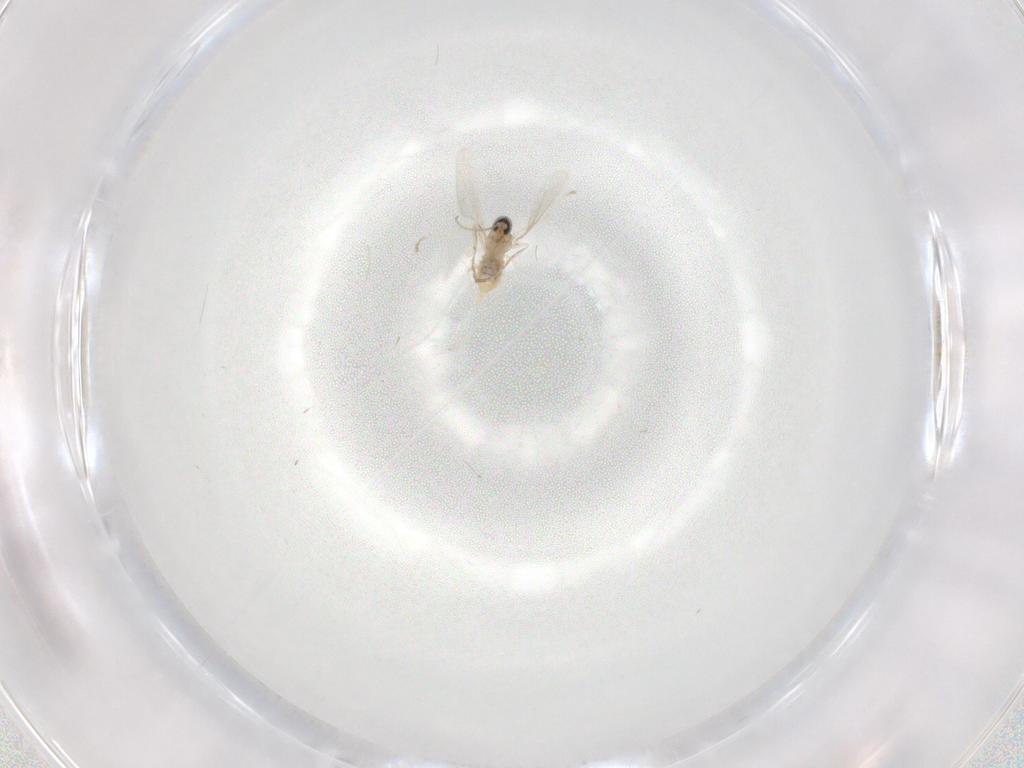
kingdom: Animalia
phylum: Arthropoda
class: Insecta
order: Diptera
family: Cecidomyiidae
